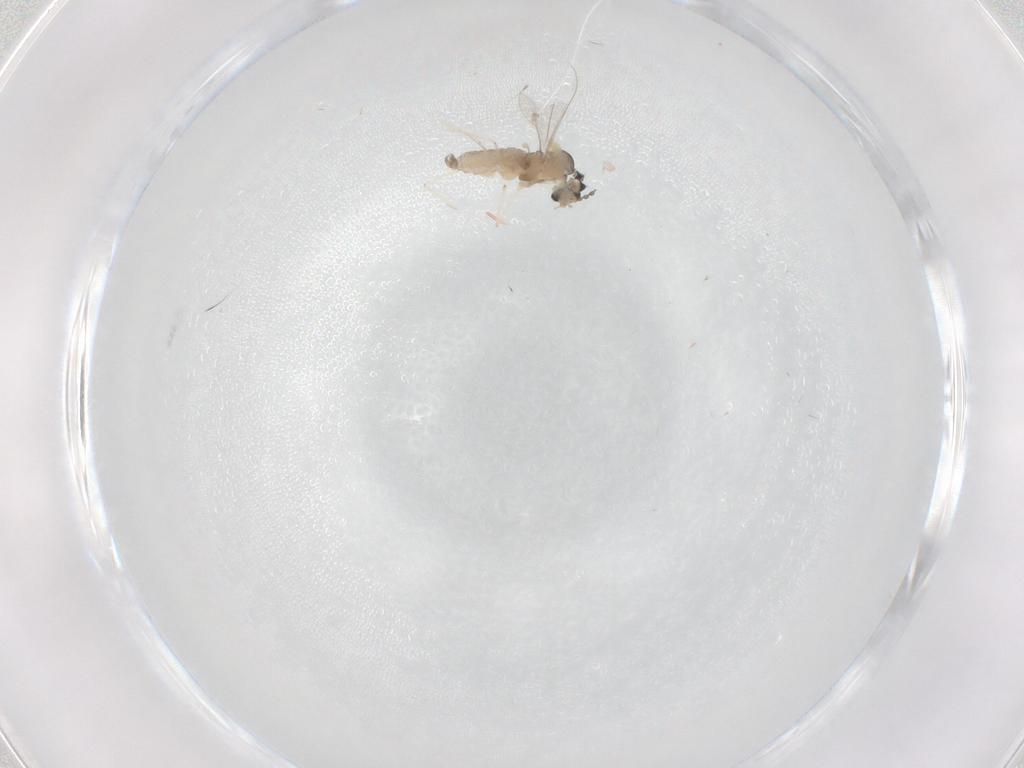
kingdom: Animalia
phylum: Arthropoda
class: Insecta
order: Diptera
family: Cecidomyiidae
